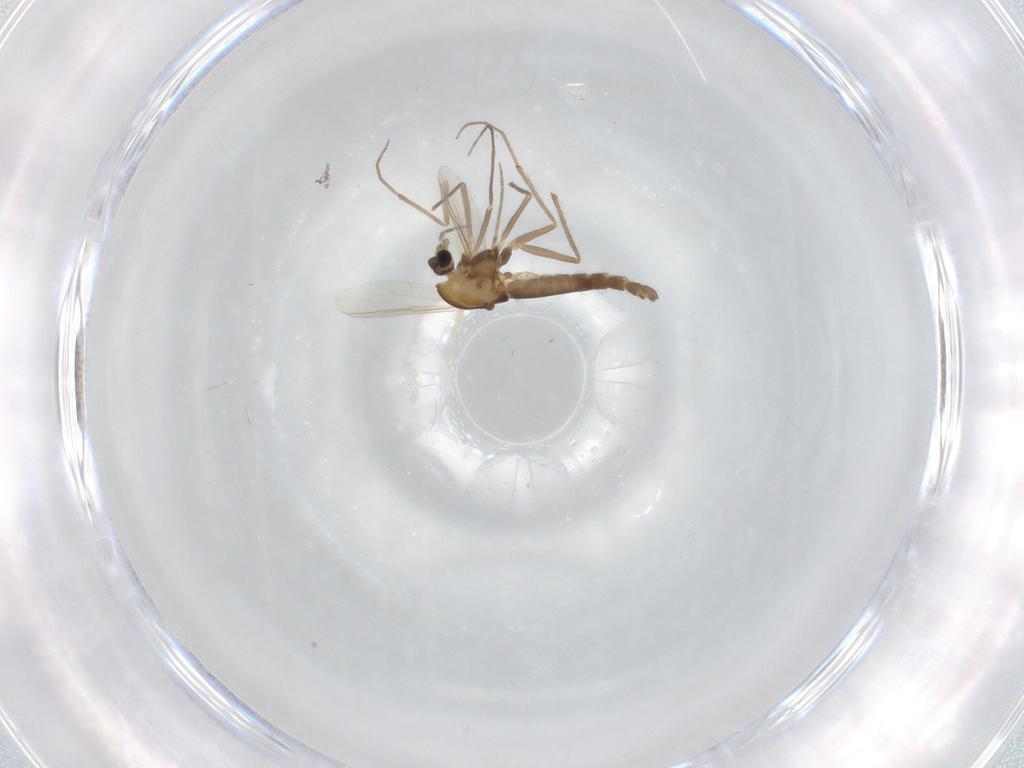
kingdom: Animalia
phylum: Arthropoda
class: Insecta
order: Diptera
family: Chironomidae
